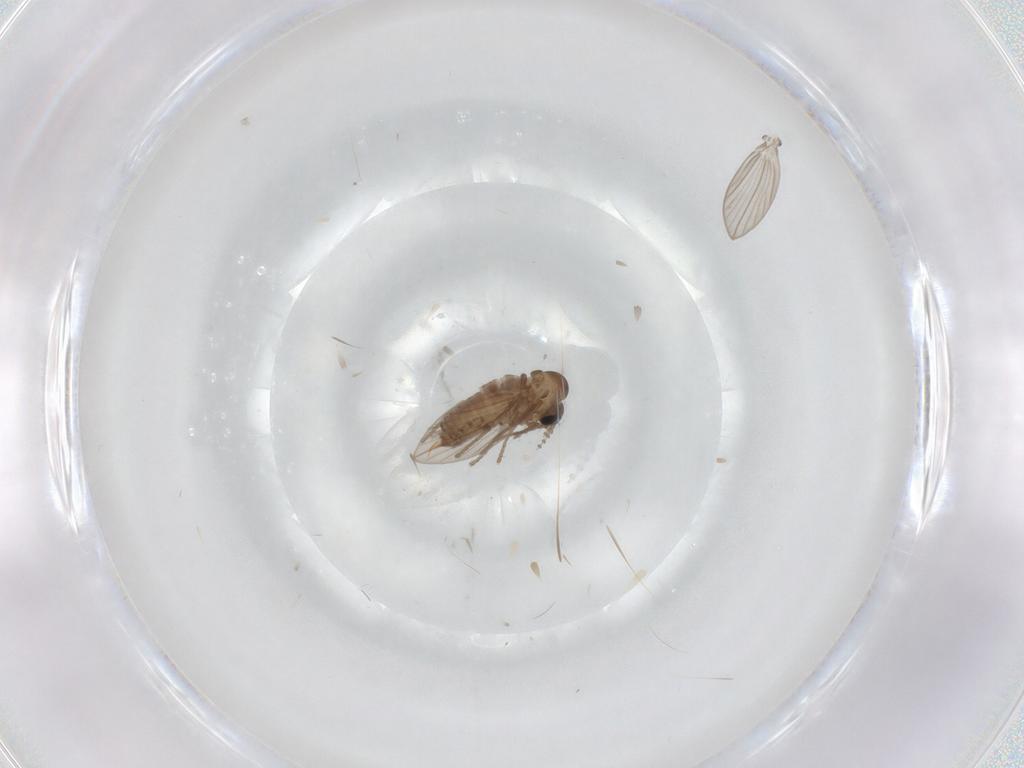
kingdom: Animalia
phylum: Arthropoda
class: Insecta
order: Diptera
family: Psychodidae
